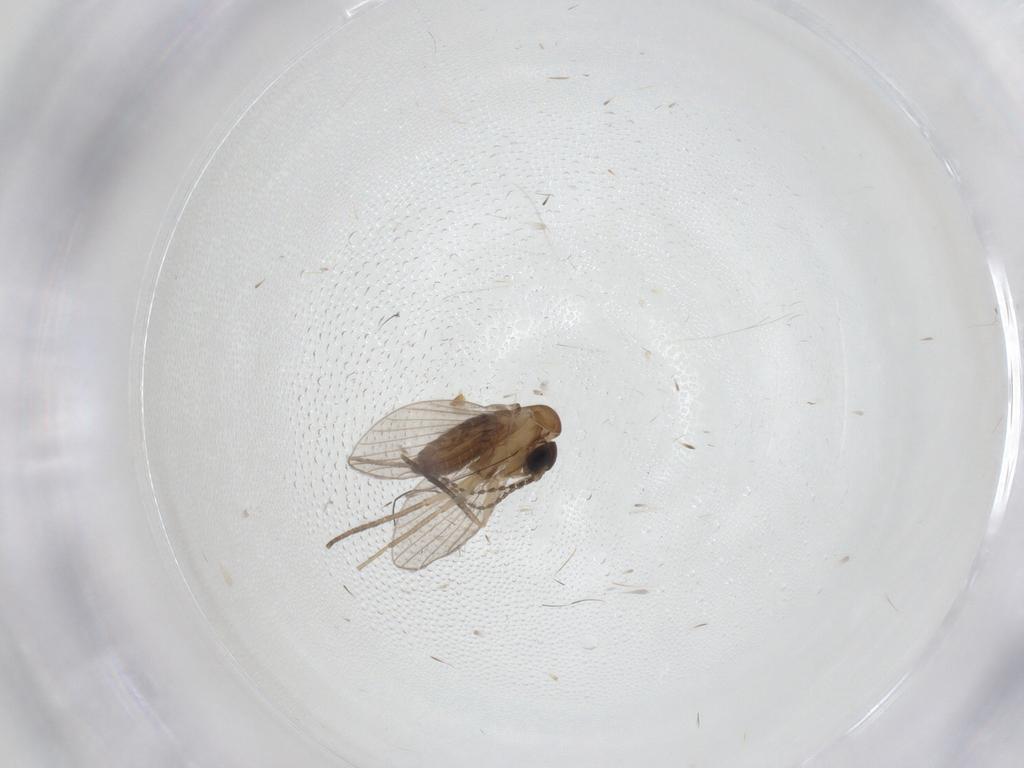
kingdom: Animalia
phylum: Arthropoda
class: Insecta
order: Diptera
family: Cecidomyiidae
